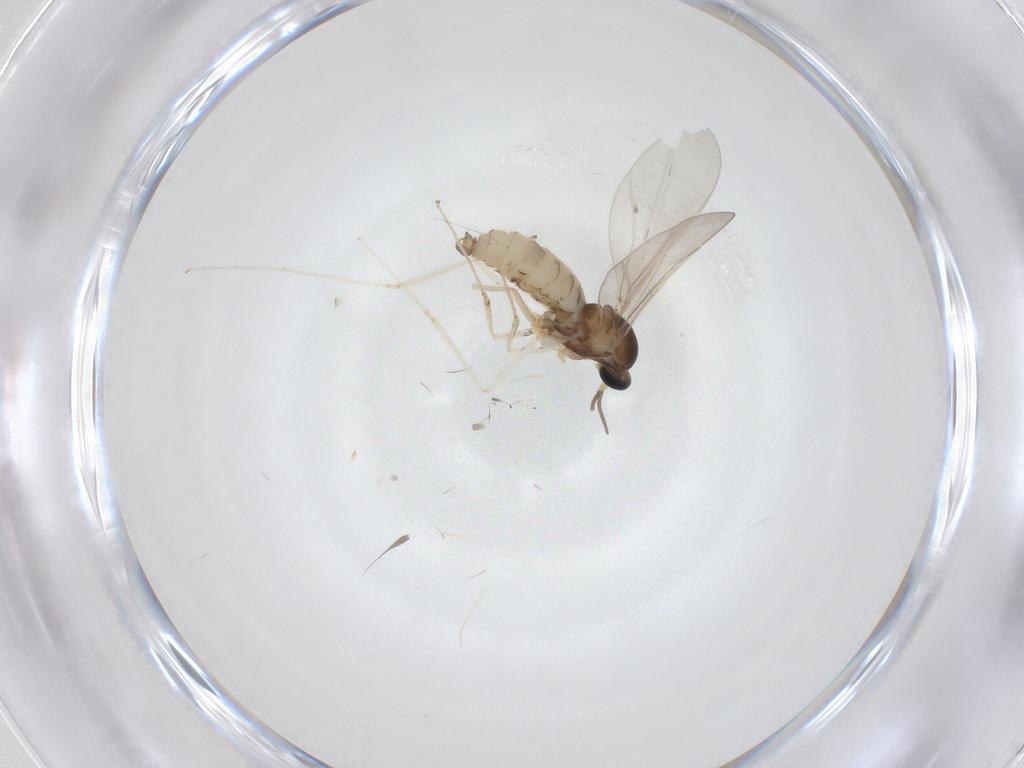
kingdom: Animalia
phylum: Arthropoda
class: Insecta
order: Diptera
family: Cecidomyiidae
